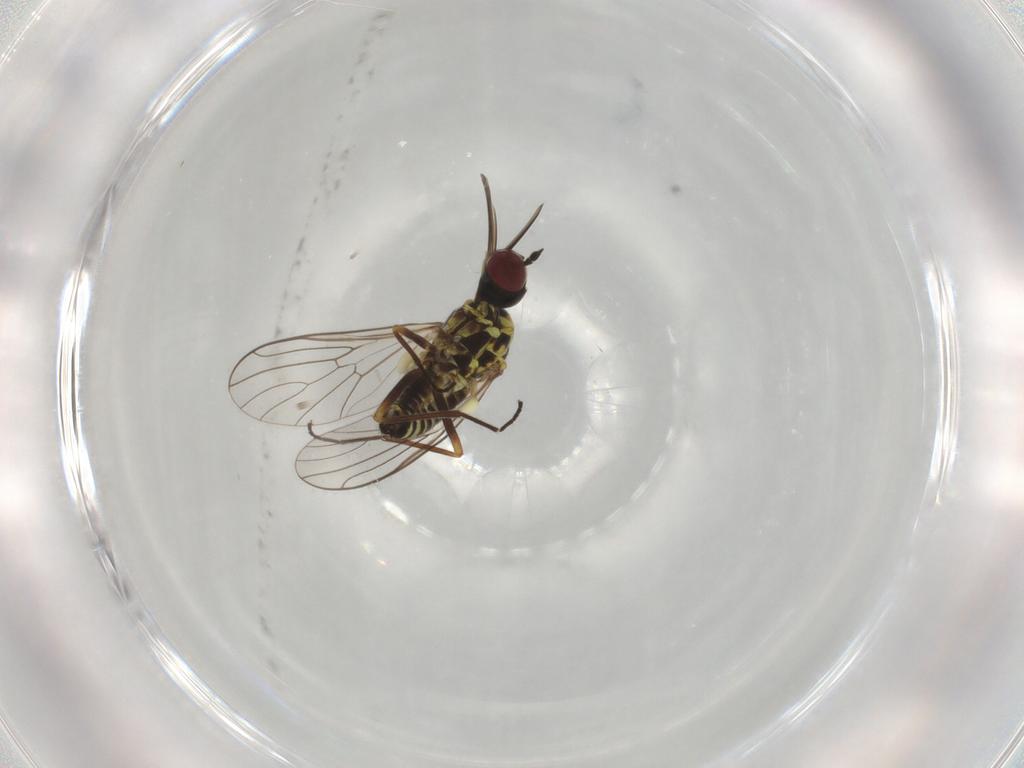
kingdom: Animalia
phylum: Arthropoda
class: Insecta
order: Diptera
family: Bombyliidae
